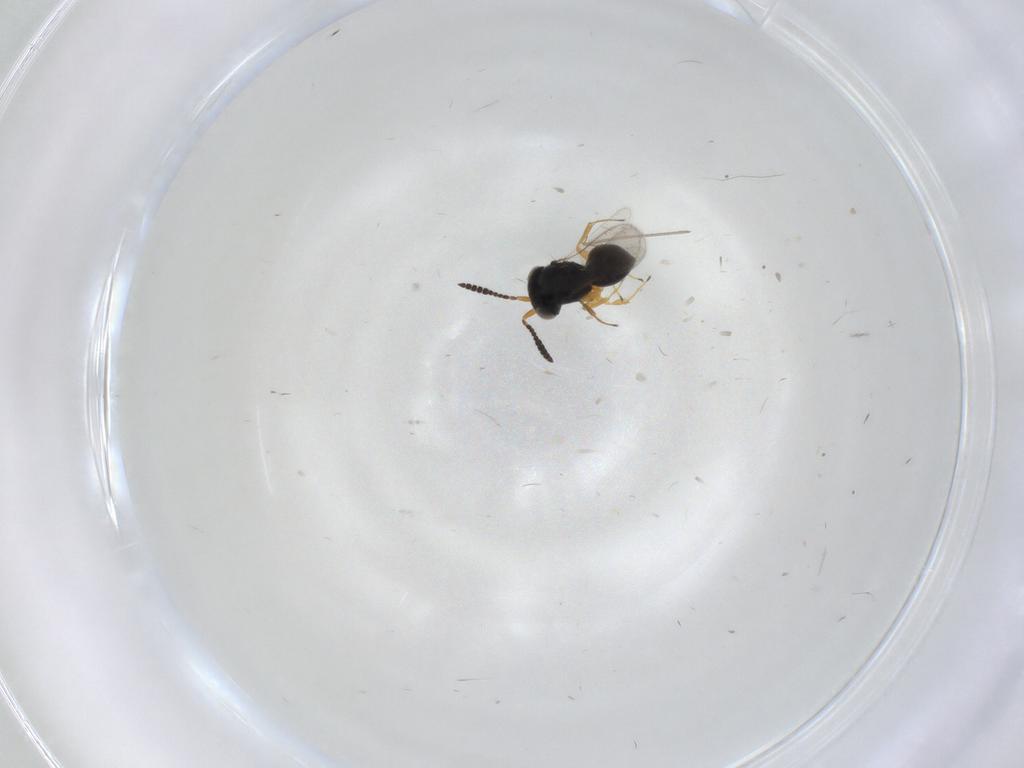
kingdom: Animalia
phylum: Arthropoda
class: Insecta
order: Hymenoptera
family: Scelionidae
